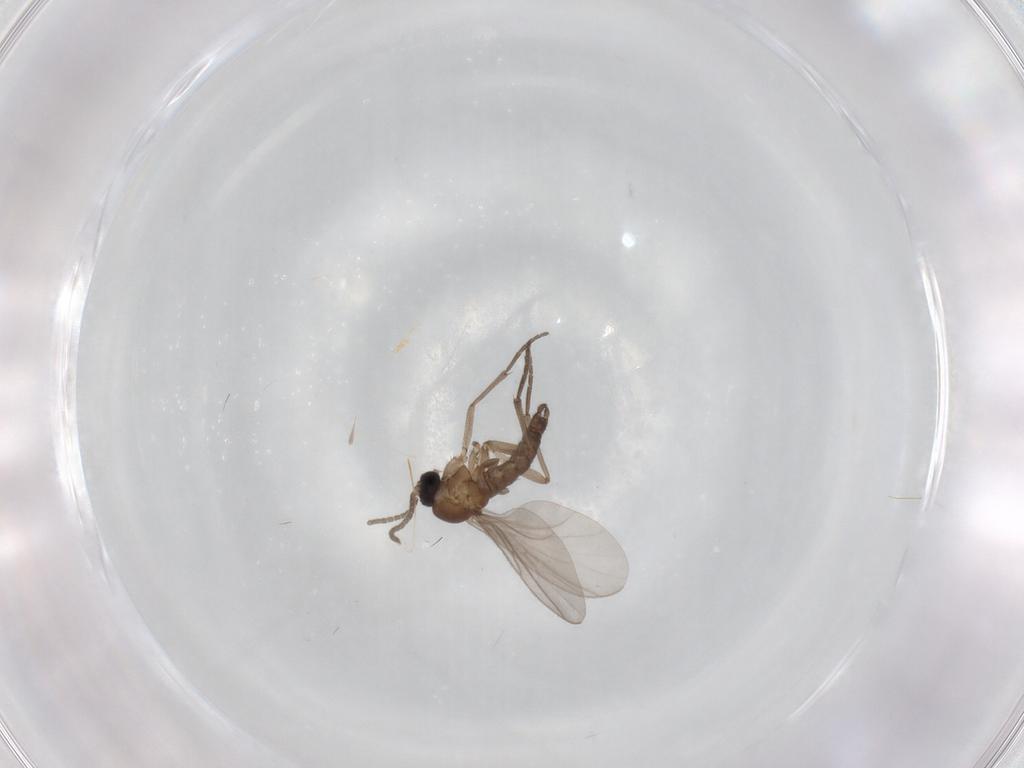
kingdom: Animalia
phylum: Arthropoda
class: Insecta
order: Diptera
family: Sciaridae
